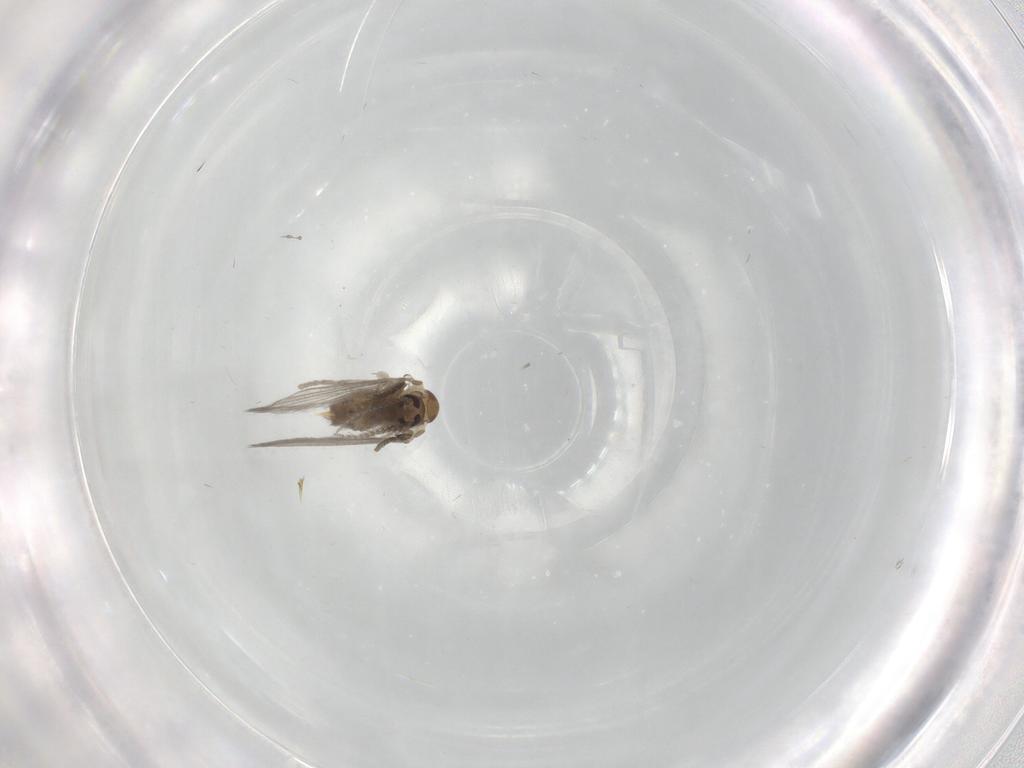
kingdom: Animalia
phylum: Arthropoda
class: Insecta
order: Diptera
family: Psychodidae
